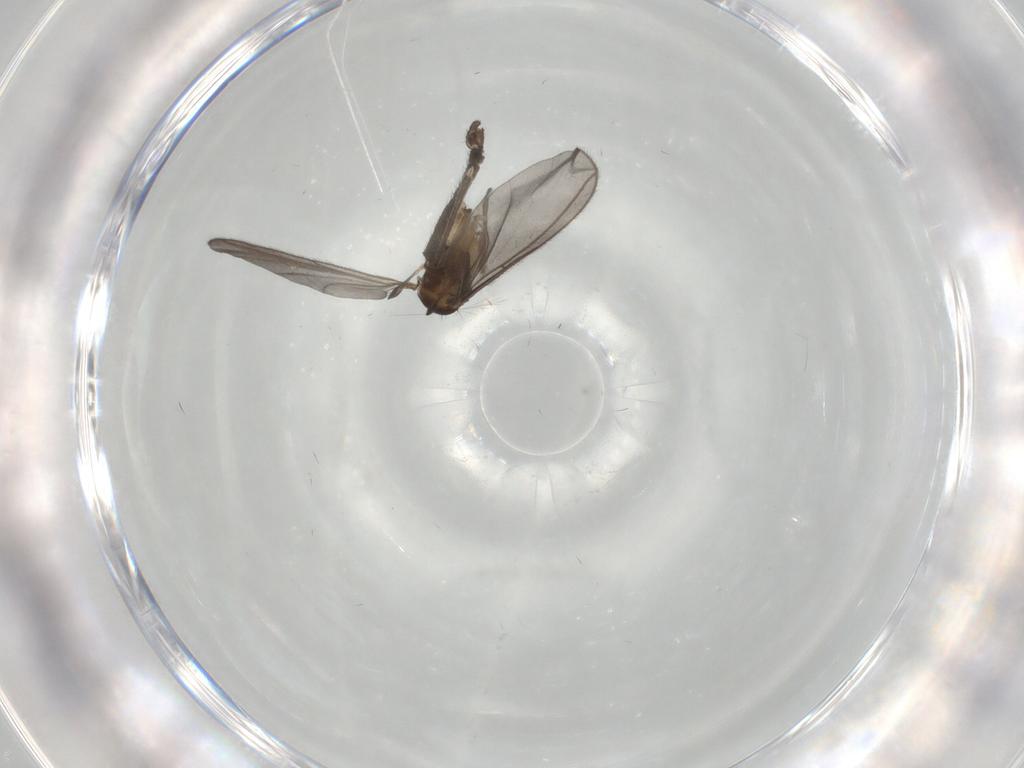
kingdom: Animalia
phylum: Arthropoda
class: Insecta
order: Diptera
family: Sciaridae
